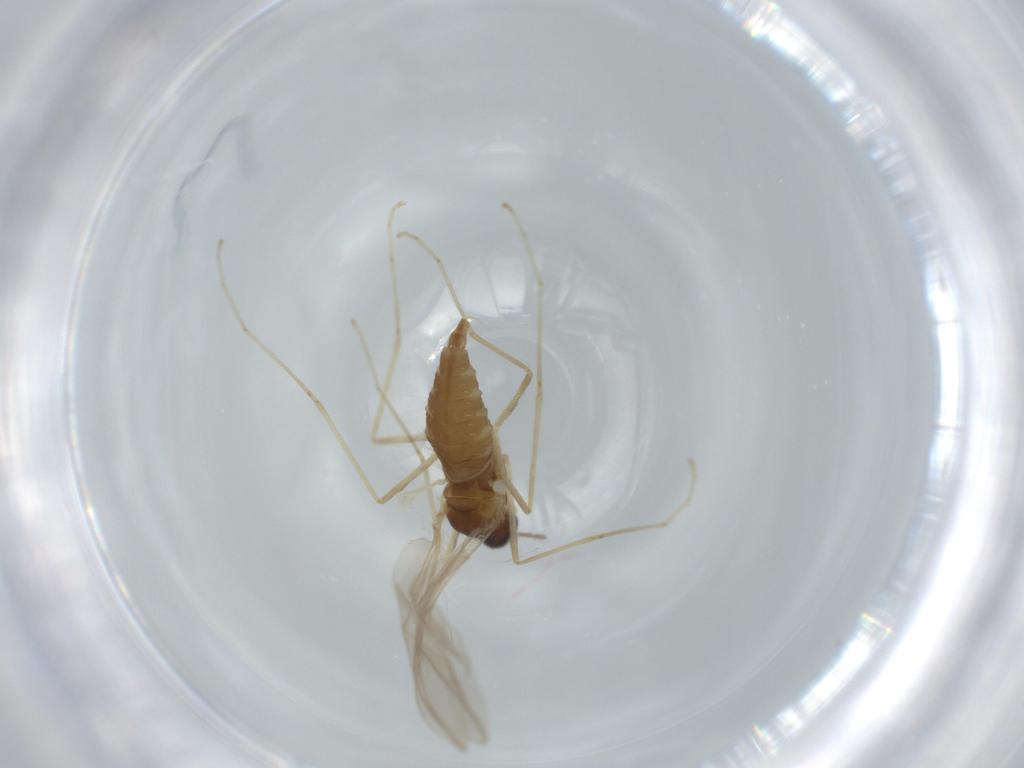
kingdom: Animalia
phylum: Arthropoda
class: Insecta
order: Diptera
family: Cecidomyiidae
